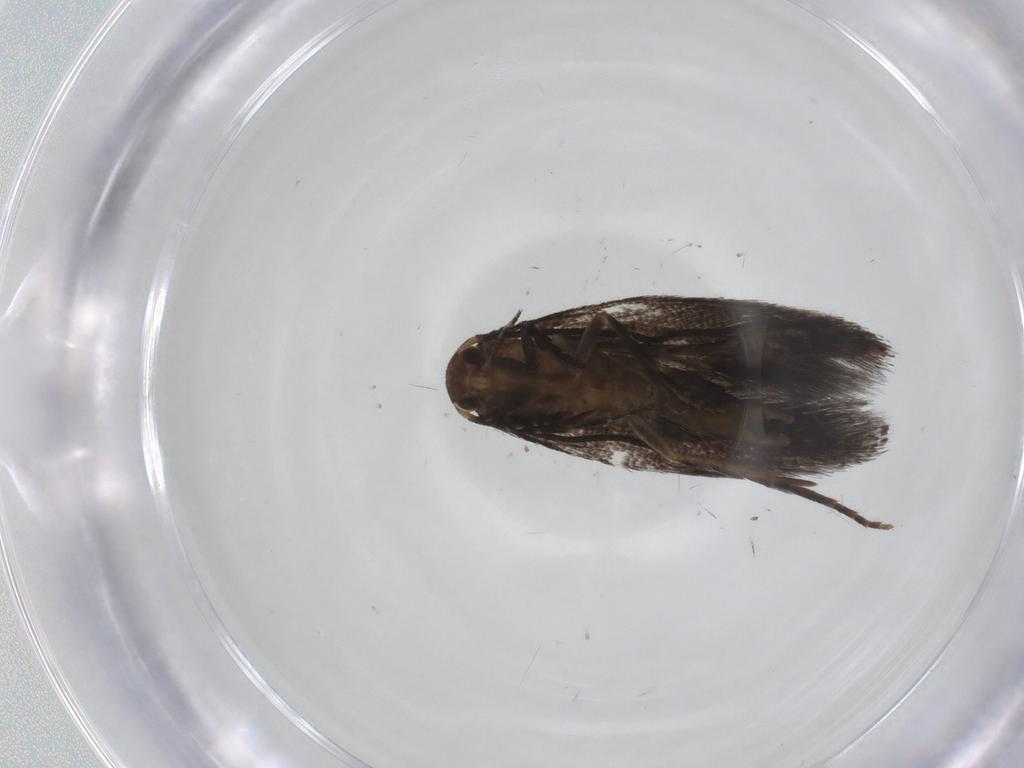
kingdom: Animalia
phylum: Arthropoda
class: Insecta
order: Lepidoptera
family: Elachistidae
